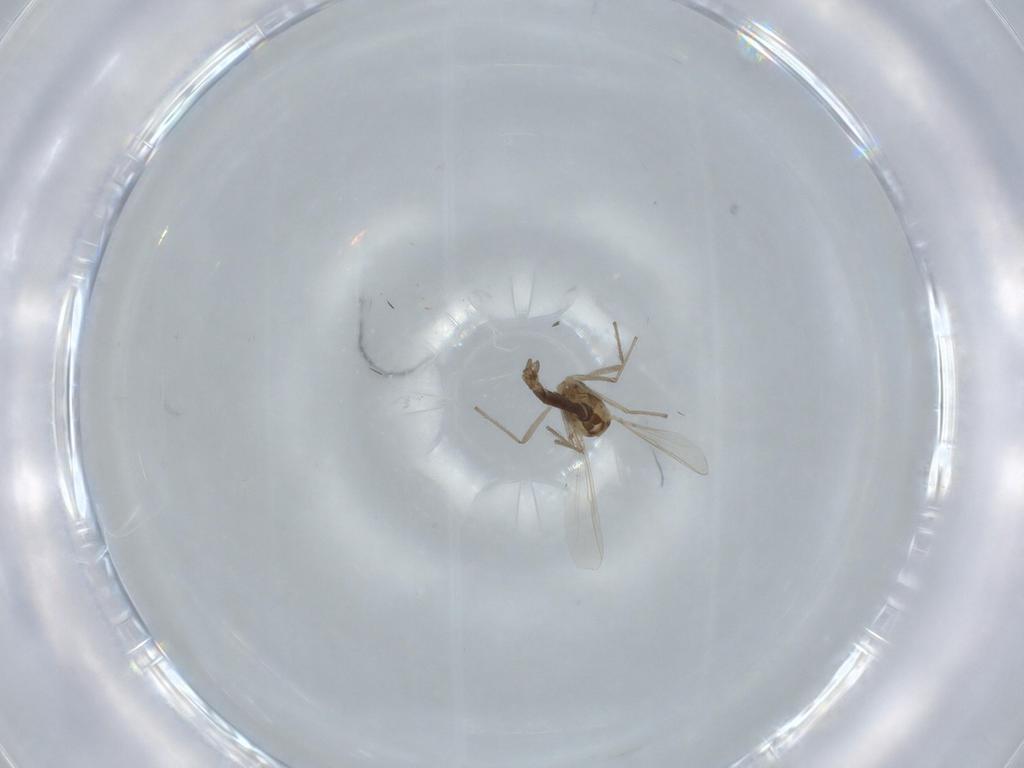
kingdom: Animalia
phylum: Arthropoda
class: Insecta
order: Diptera
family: Chironomidae
